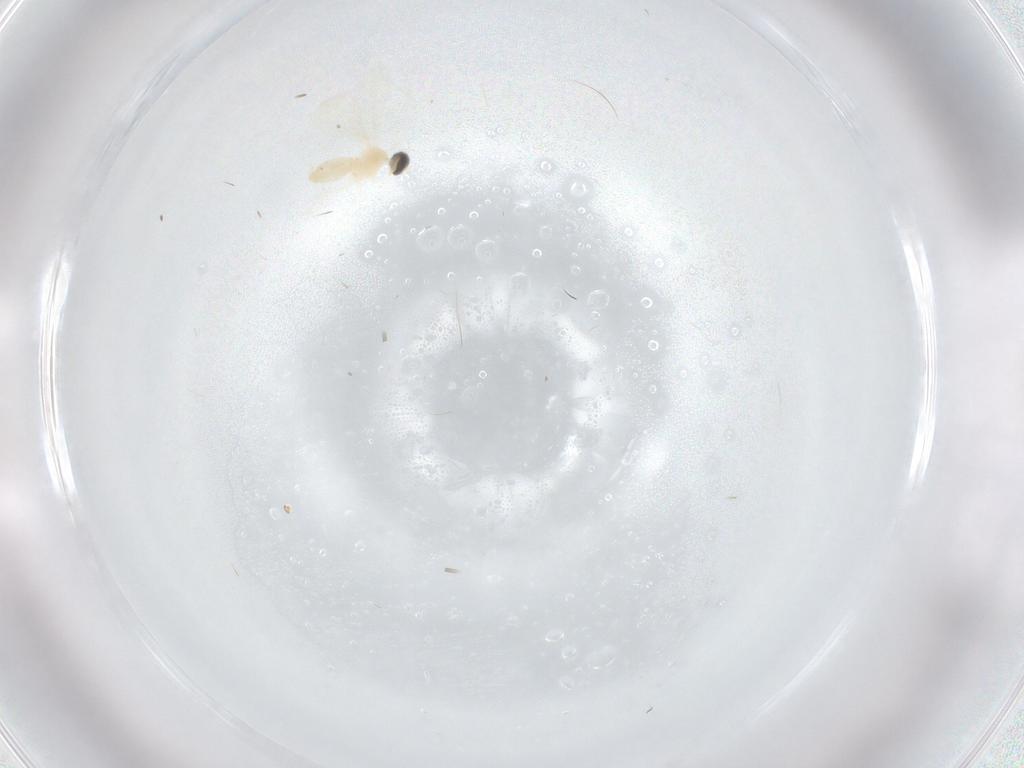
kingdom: Animalia
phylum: Arthropoda
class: Insecta
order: Diptera
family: Cecidomyiidae
